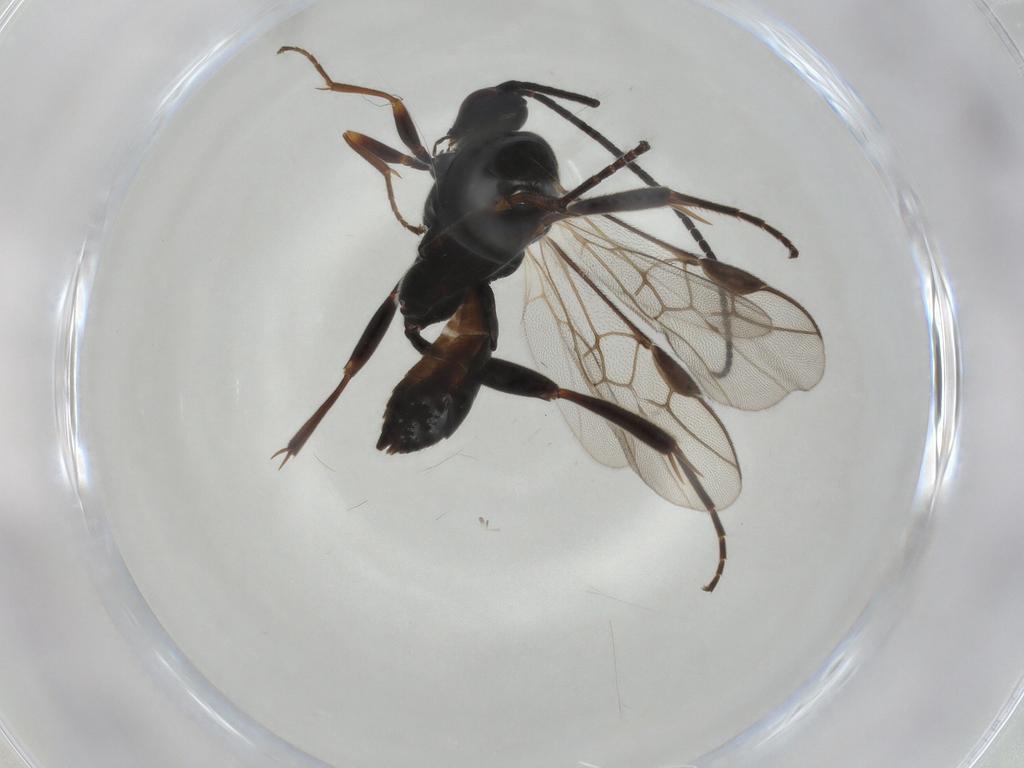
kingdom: Animalia
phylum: Arthropoda
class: Insecta
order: Hymenoptera
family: Braconidae
